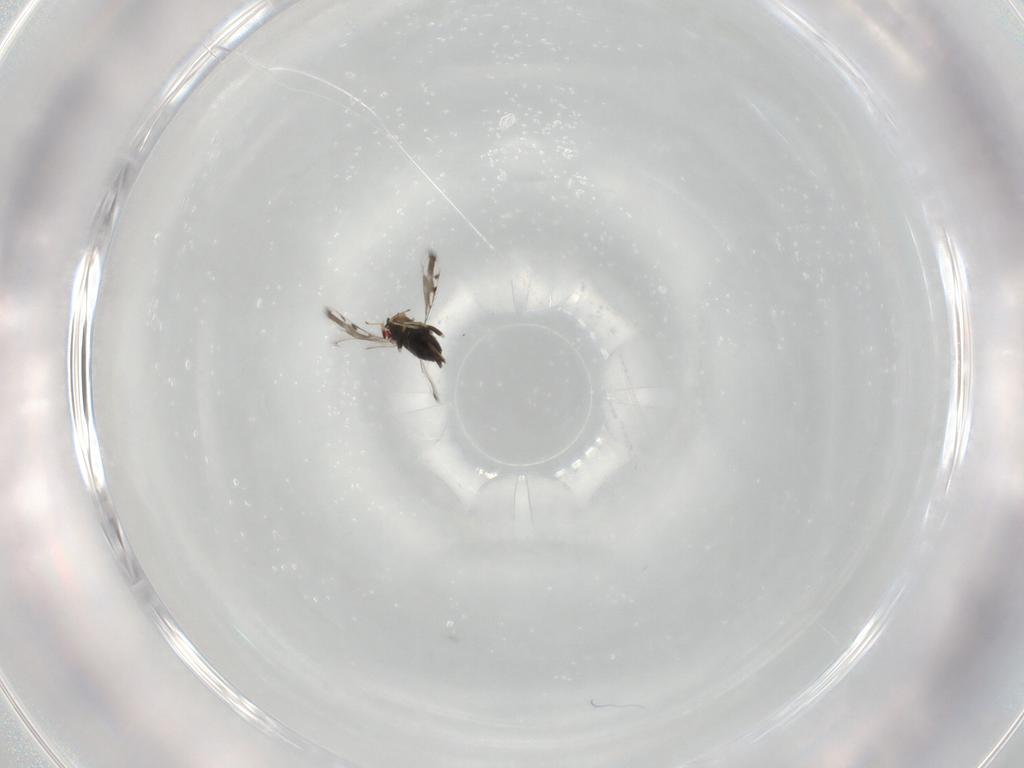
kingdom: Animalia
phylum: Arthropoda
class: Insecta
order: Hymenoptera
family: Azotidae
